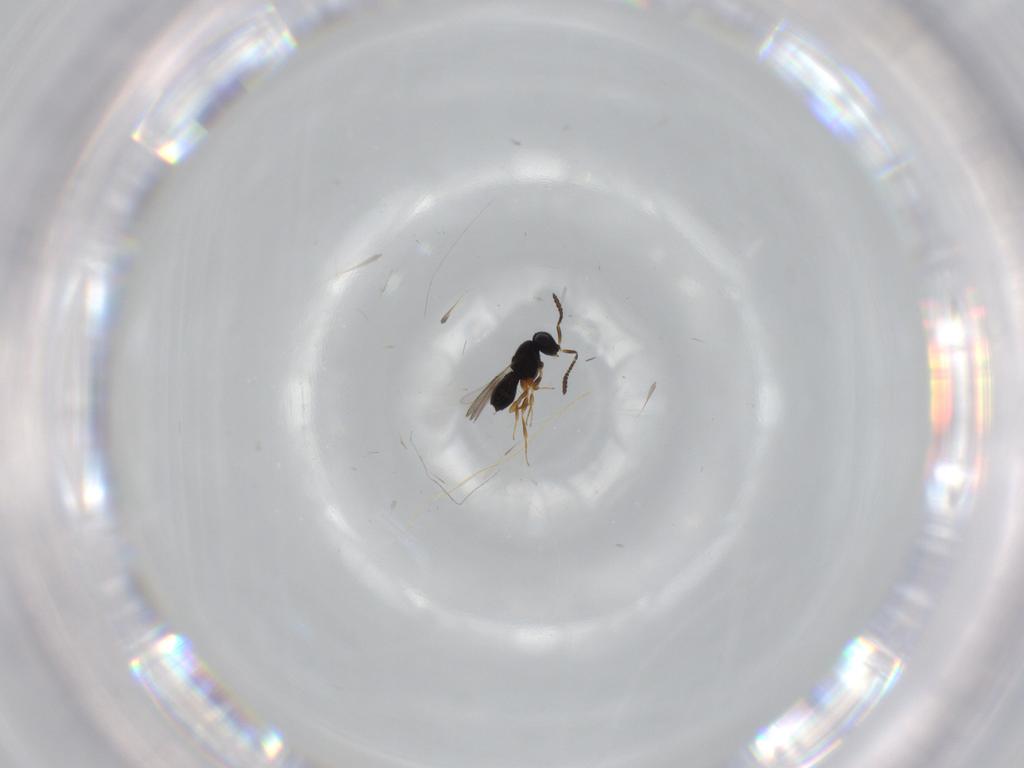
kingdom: Animalia
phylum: Arthropoda
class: Insecta
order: Hymenoptera
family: Scelionidae
